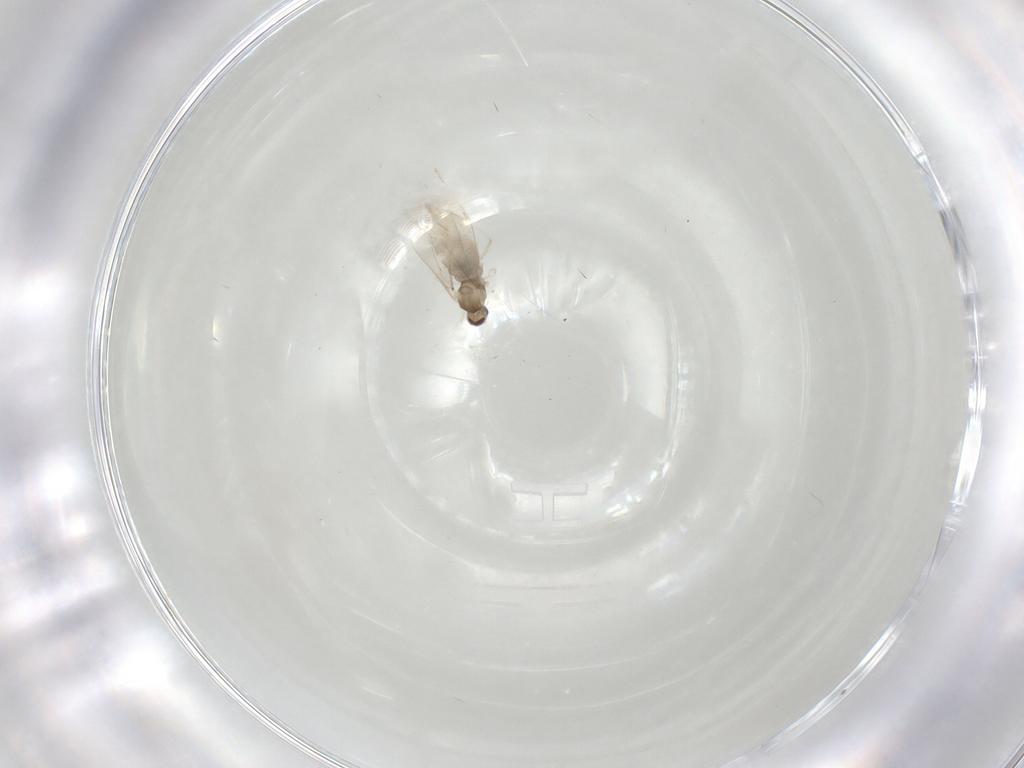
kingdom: Animalia
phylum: Arthropoda
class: Insecta
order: Diptera
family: Cecidomyiidae
